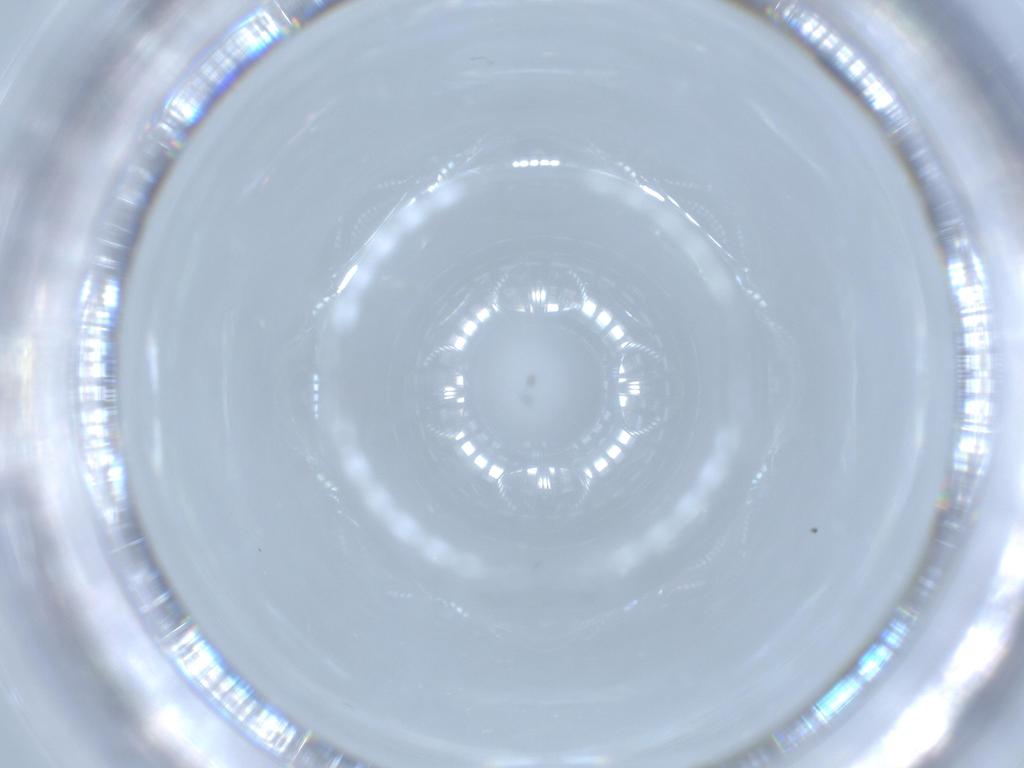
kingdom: Animalia
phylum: Arthropoda
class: Insecta
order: Diptera
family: Cecidomyiidae
